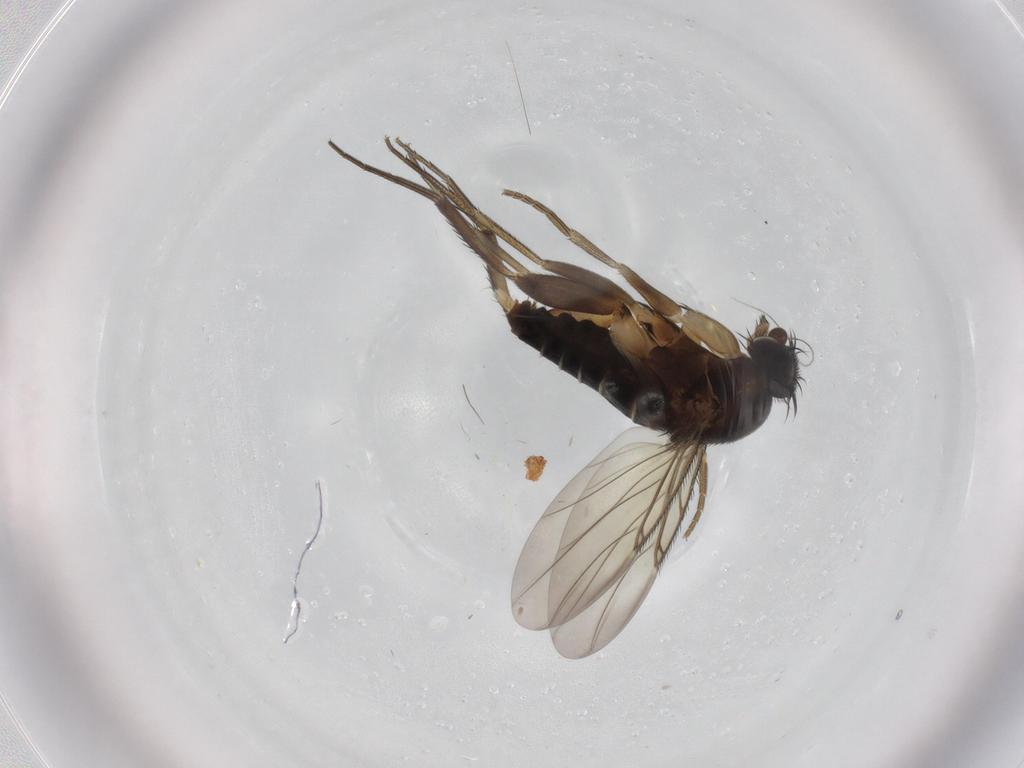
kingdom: Animalia
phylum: Arthropoda
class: Insecta
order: Diptera
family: Phoridae
